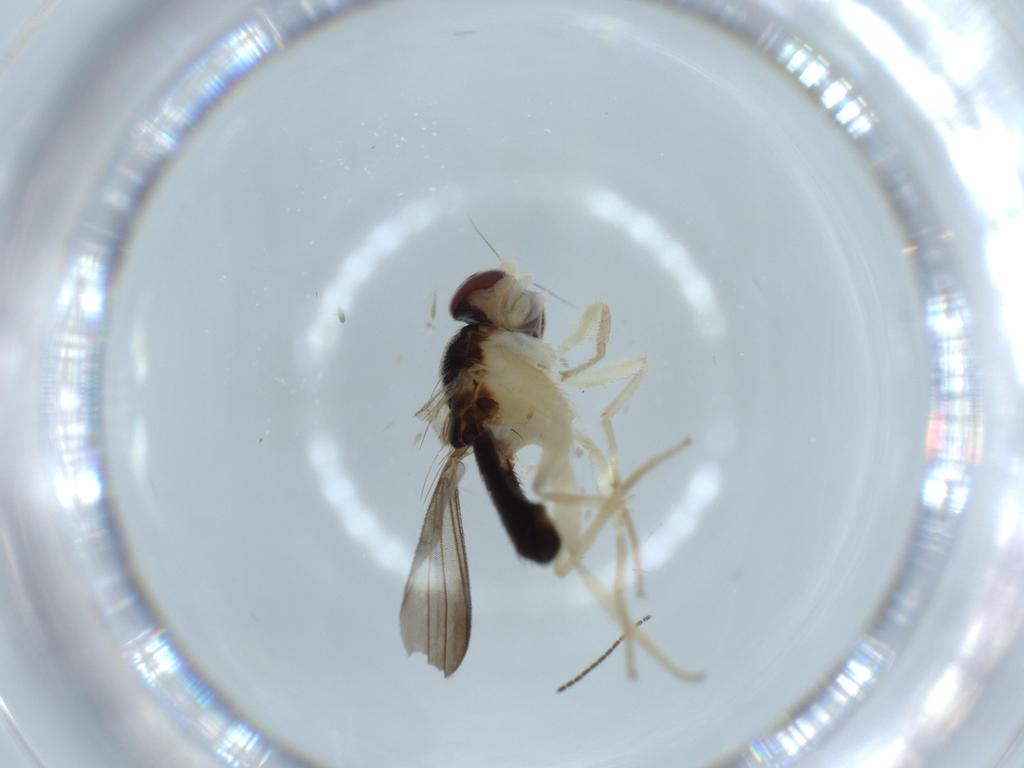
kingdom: Animalia
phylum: Arthropoda
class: Insecta
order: Diptera
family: Sciaridae
